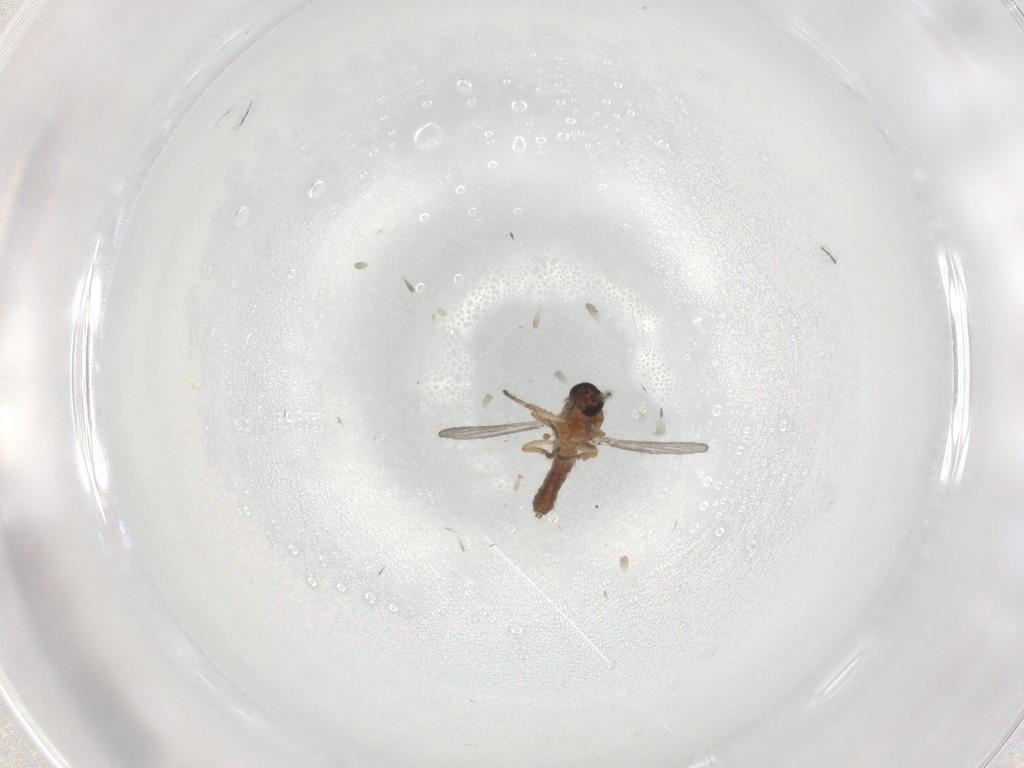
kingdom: Animalia
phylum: Arthropoda
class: Insecta
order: Diptera
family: Ceratopogonidae
